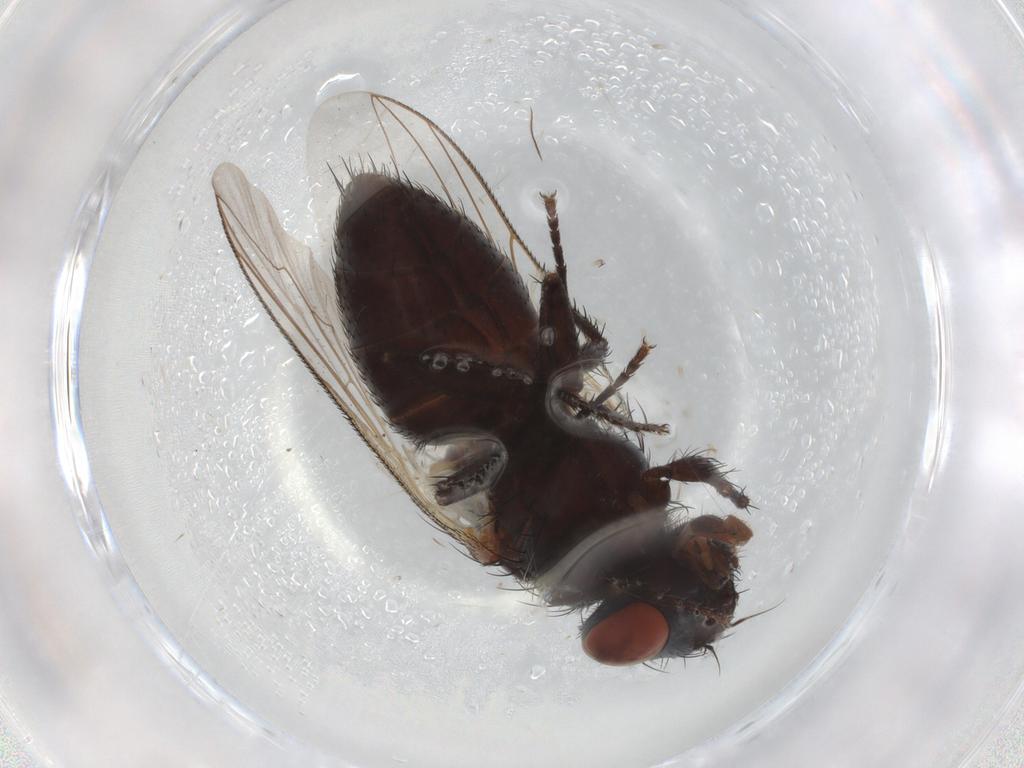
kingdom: Animalia
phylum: Arthropoda
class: Insecta
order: Diptera
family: Sarcophagidae
